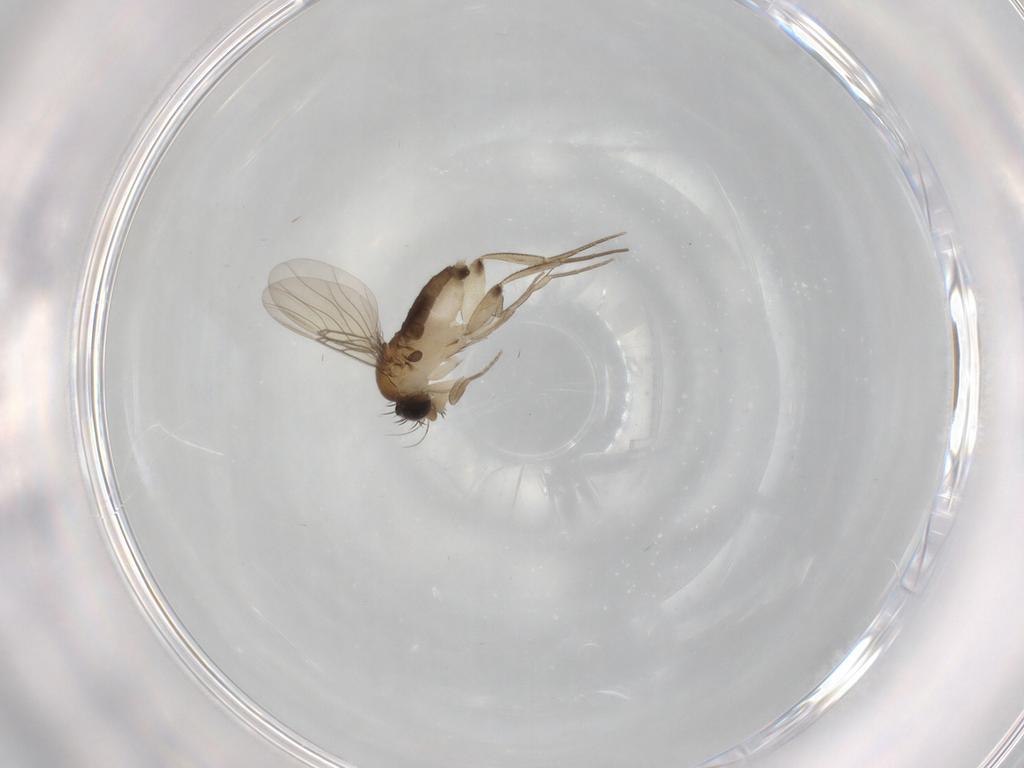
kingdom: Animalia
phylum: Arthropoda
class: Insecta
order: Diptera
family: Phoridae
